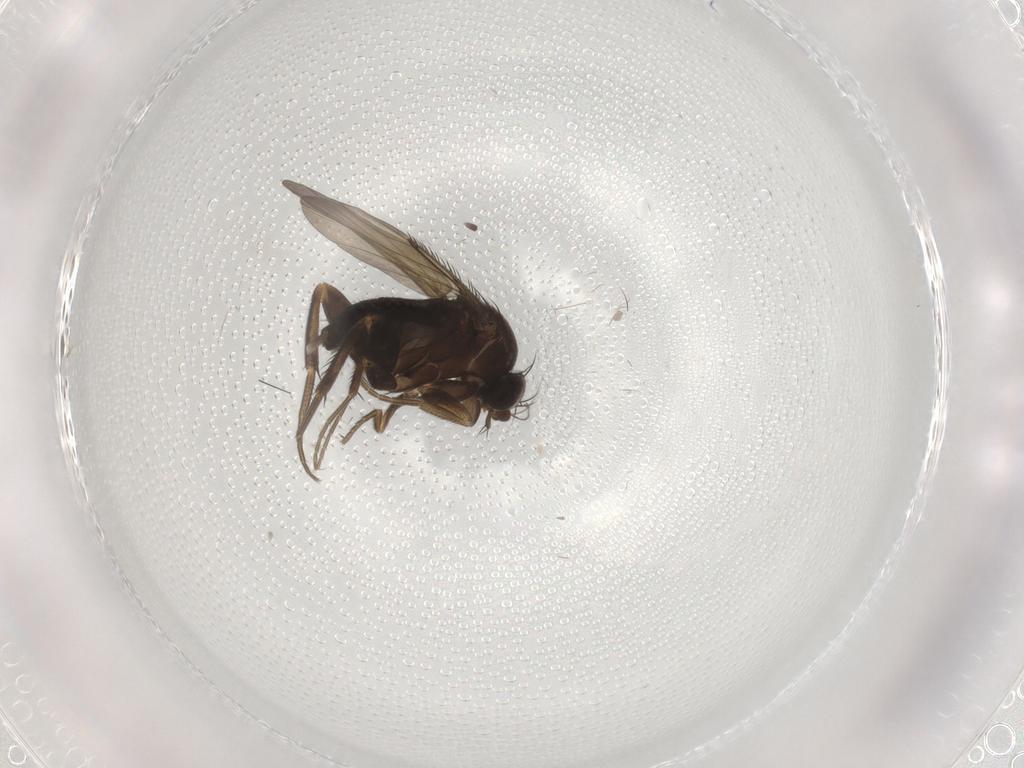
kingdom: Animalia
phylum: Arthropoda
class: Insecta
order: Diptera
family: Phoridae
